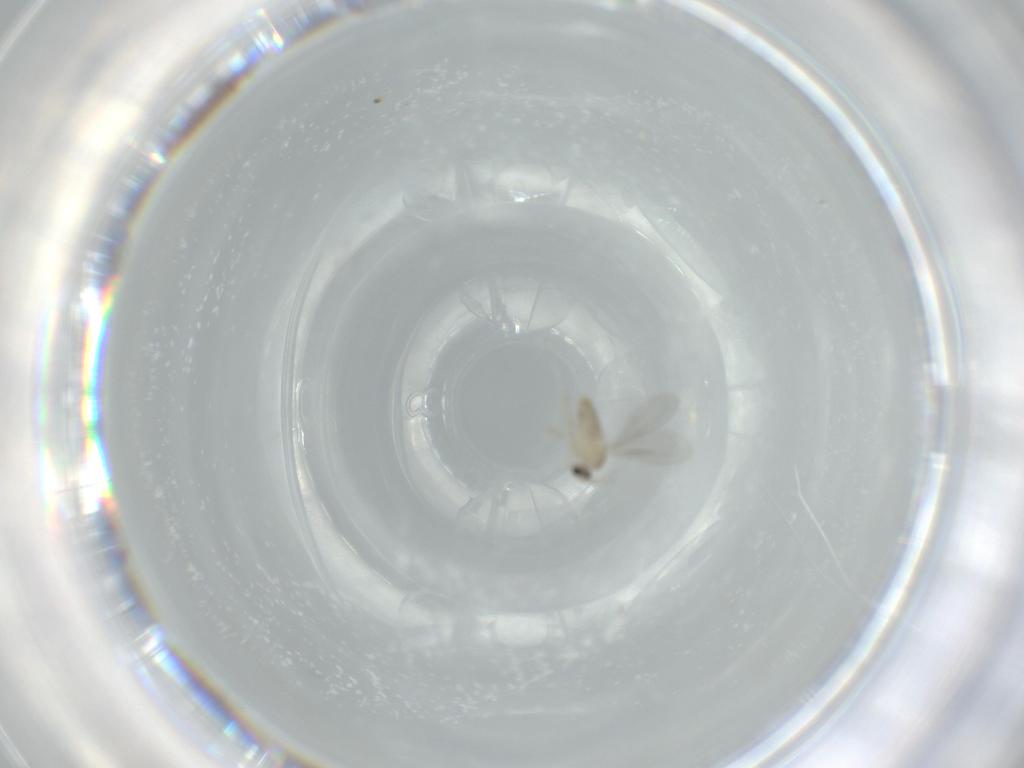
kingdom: Animalia
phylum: Arthropoda
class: Insecta
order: Diptera
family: Cecidomyiidae
